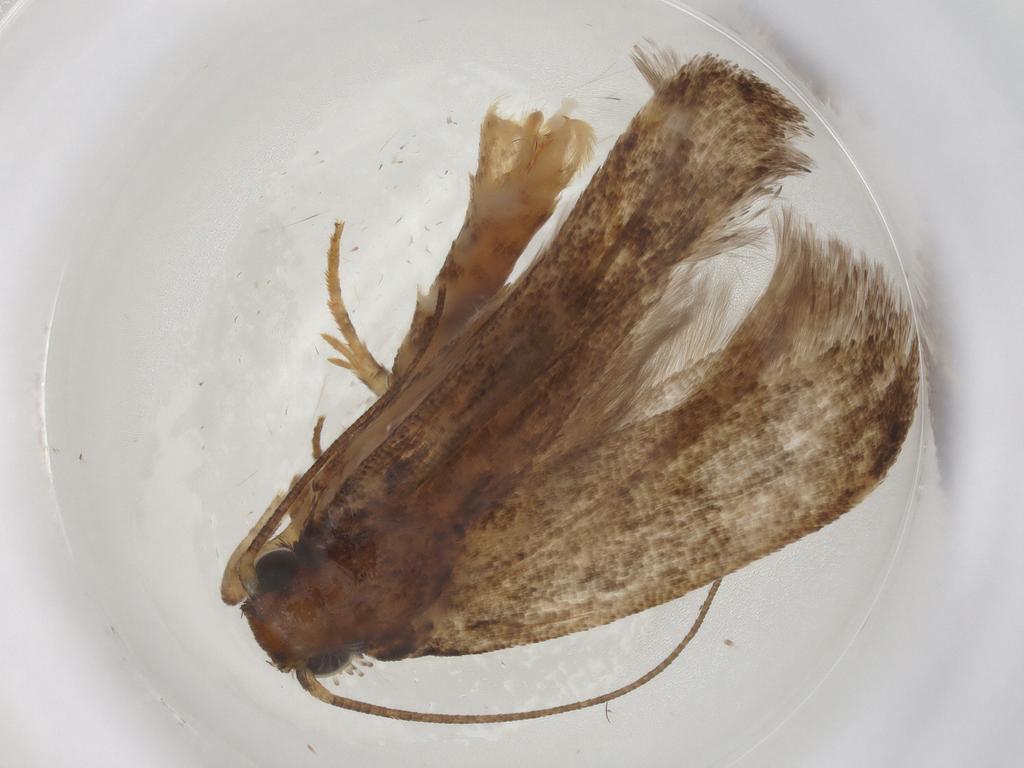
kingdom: Animalia
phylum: Arthropoda
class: Insecta
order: Lepidoptera
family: Gelechiidae
